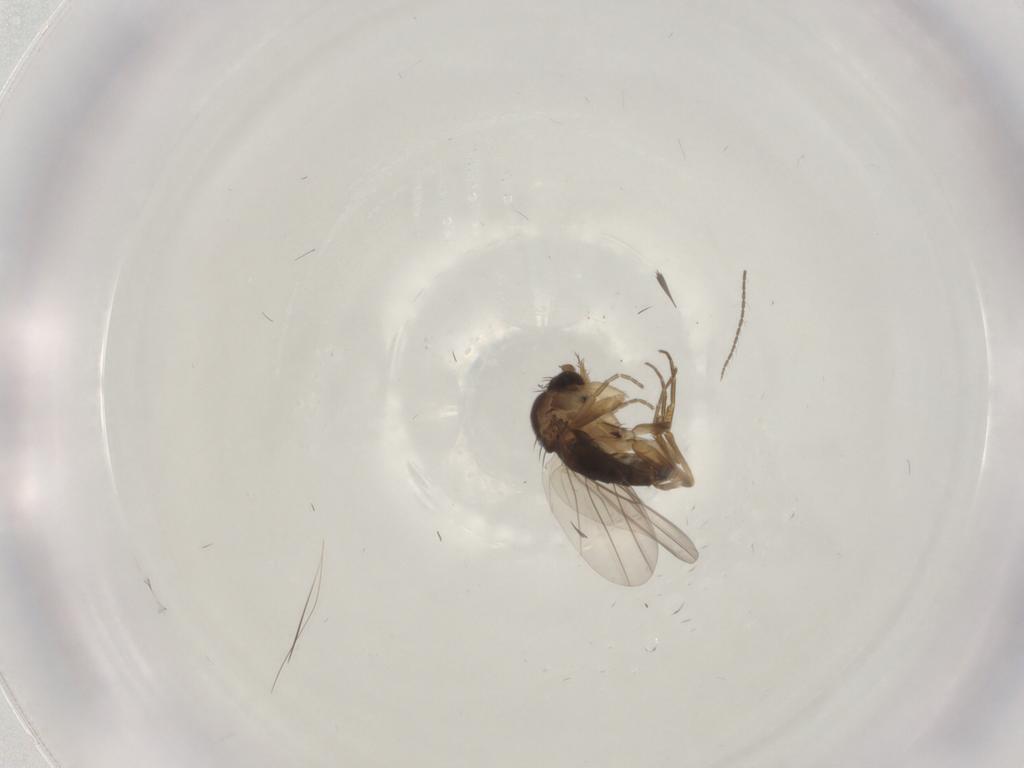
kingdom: Animalia
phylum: Arthropoda
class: Insecta
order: Diptera
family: Phoridae
